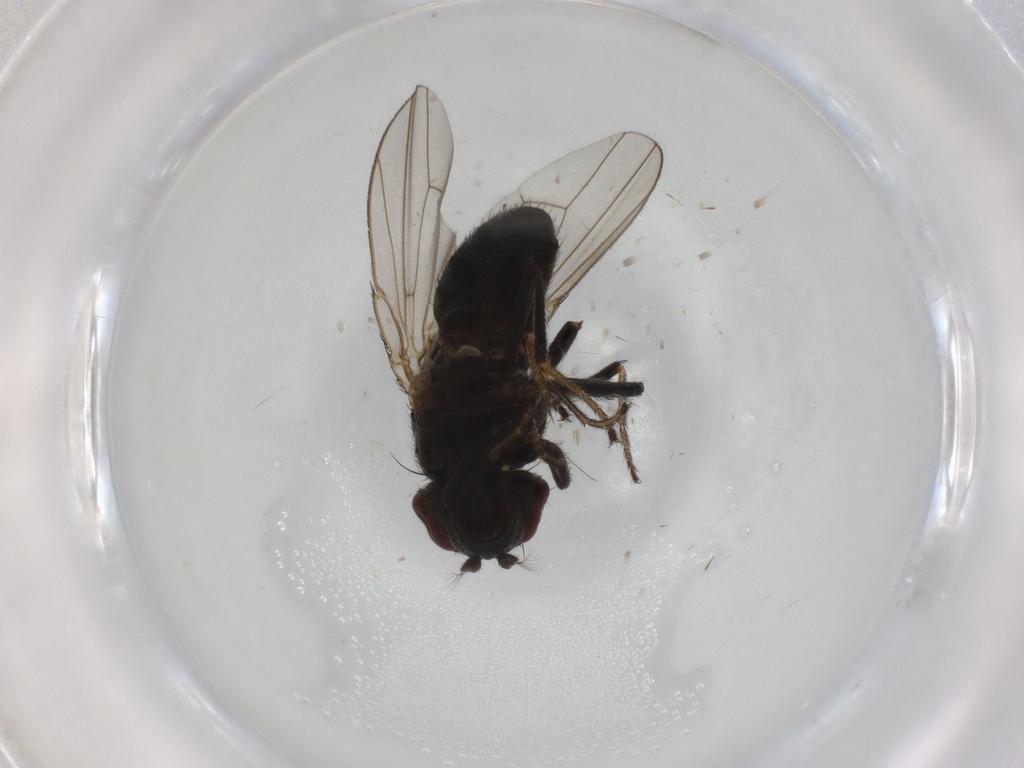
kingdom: Animalia
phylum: Arthropoda
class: Insecta
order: Diptera
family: Ephydridae
